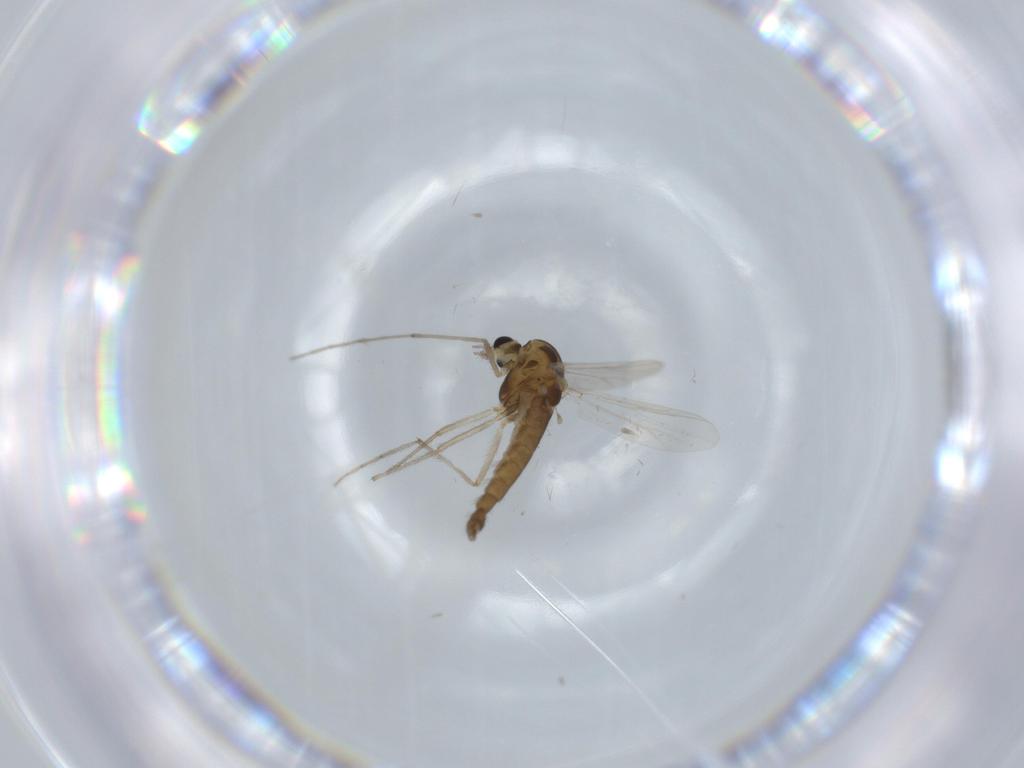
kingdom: Animalia
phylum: Arthropoda
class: Insecta
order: Diptera
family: Chironomidae
